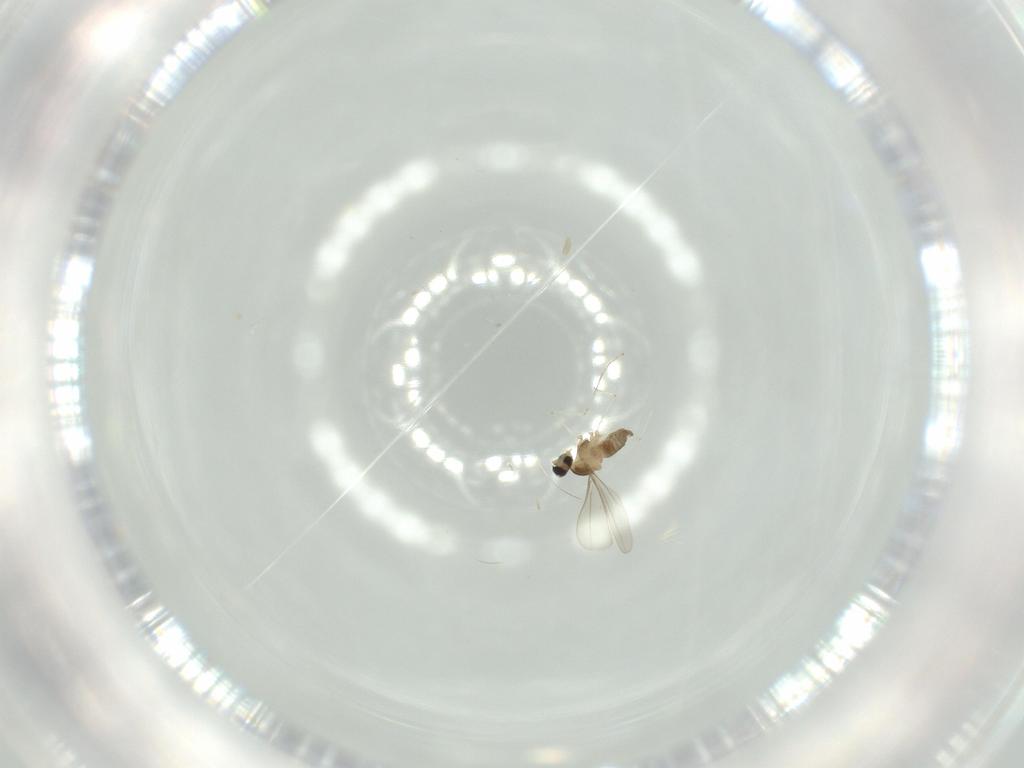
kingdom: Animalia
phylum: Arthropoda
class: Insecta
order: Diptera
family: Cecidomyiidae
